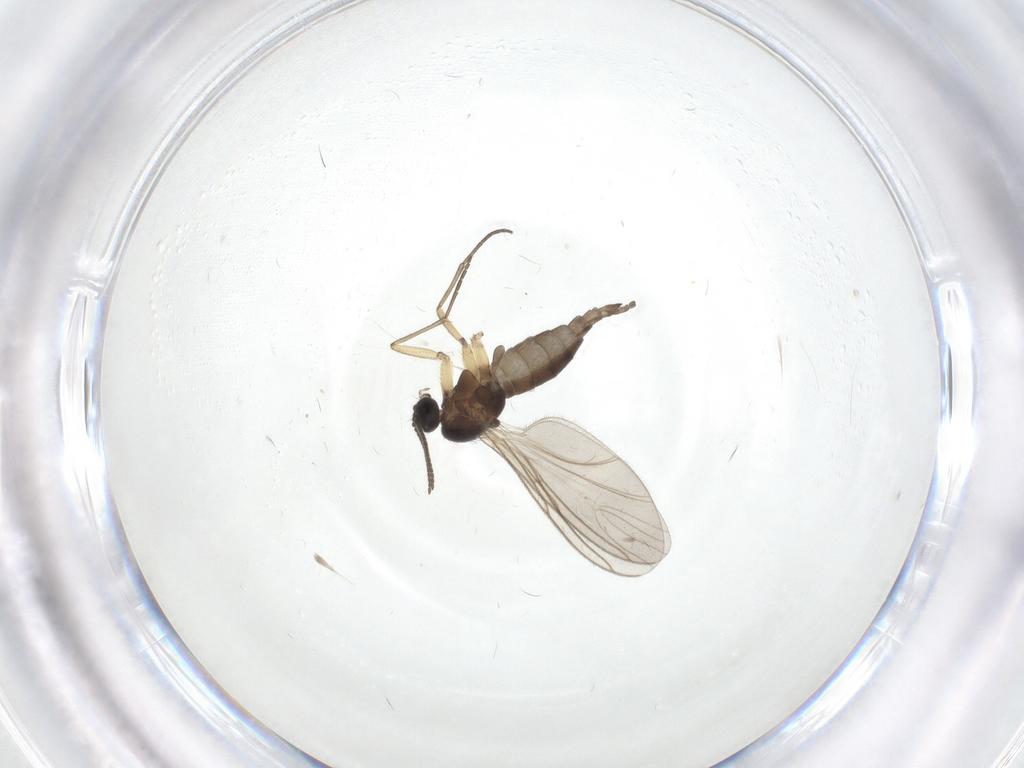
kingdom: Animalia
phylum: Arthropoda
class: Insecta
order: Diptera
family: Sciaridae
